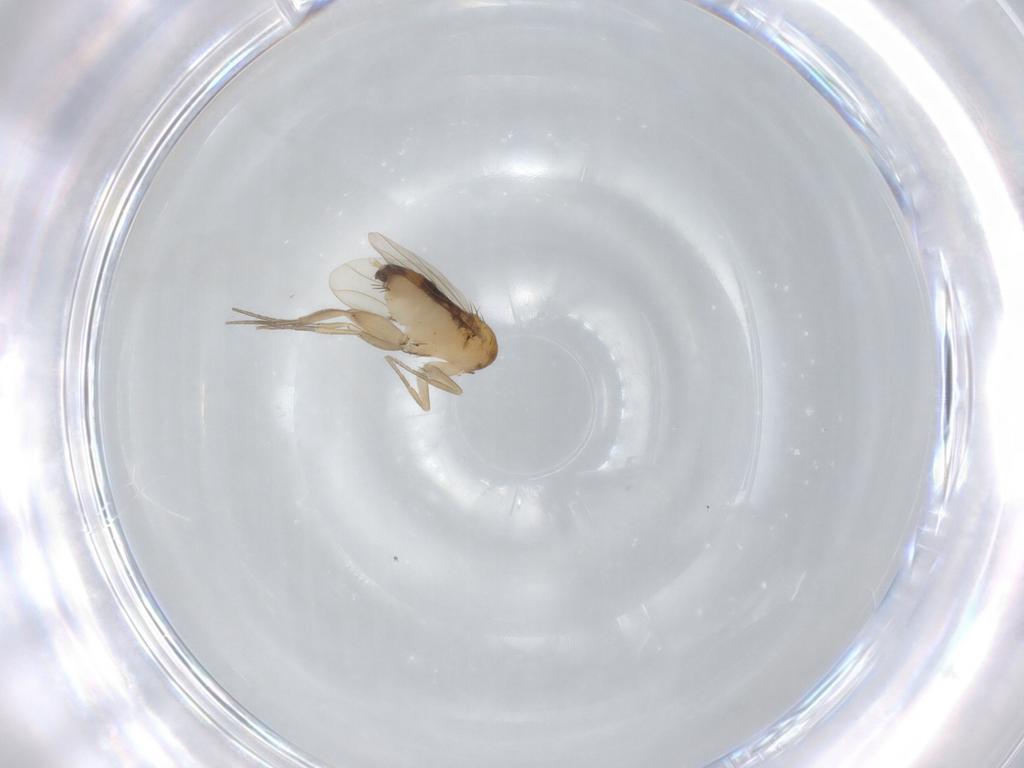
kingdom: Animalia
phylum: Arthropoda
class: Insecta
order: Diptera
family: Phoridae
